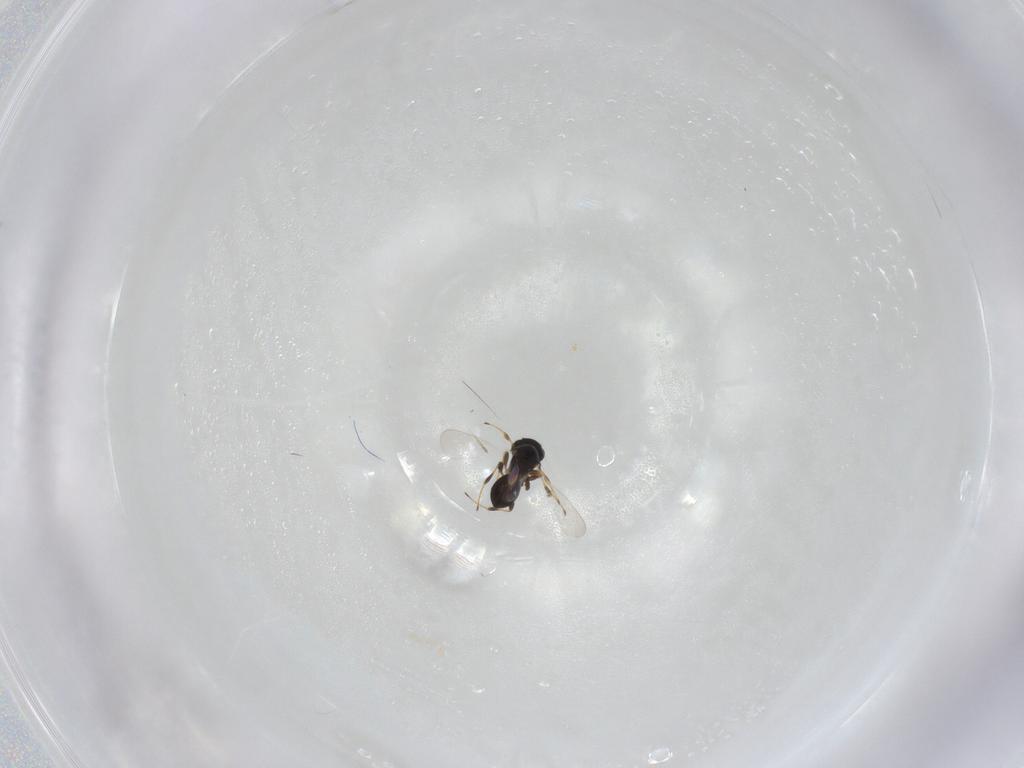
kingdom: Animalia
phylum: Arthropoda
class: Insecta
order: Hymenoptera
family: Platygastridae
